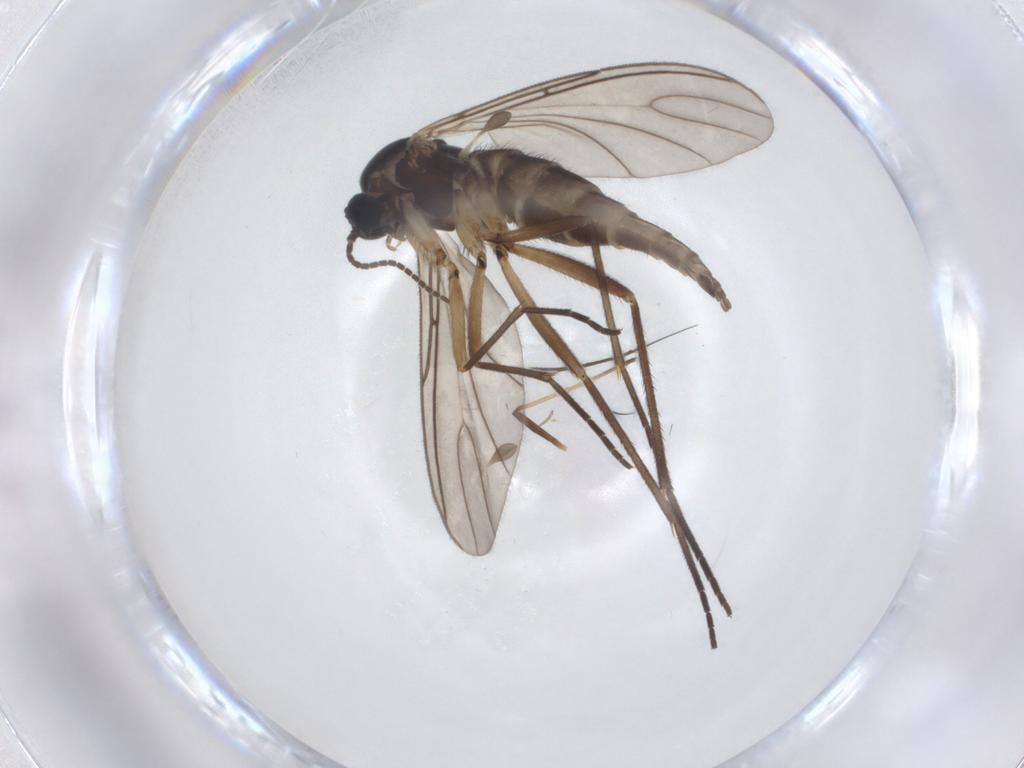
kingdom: Animalia
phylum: Arthropoda
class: Insecta
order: Diptera
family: Sciaridae
